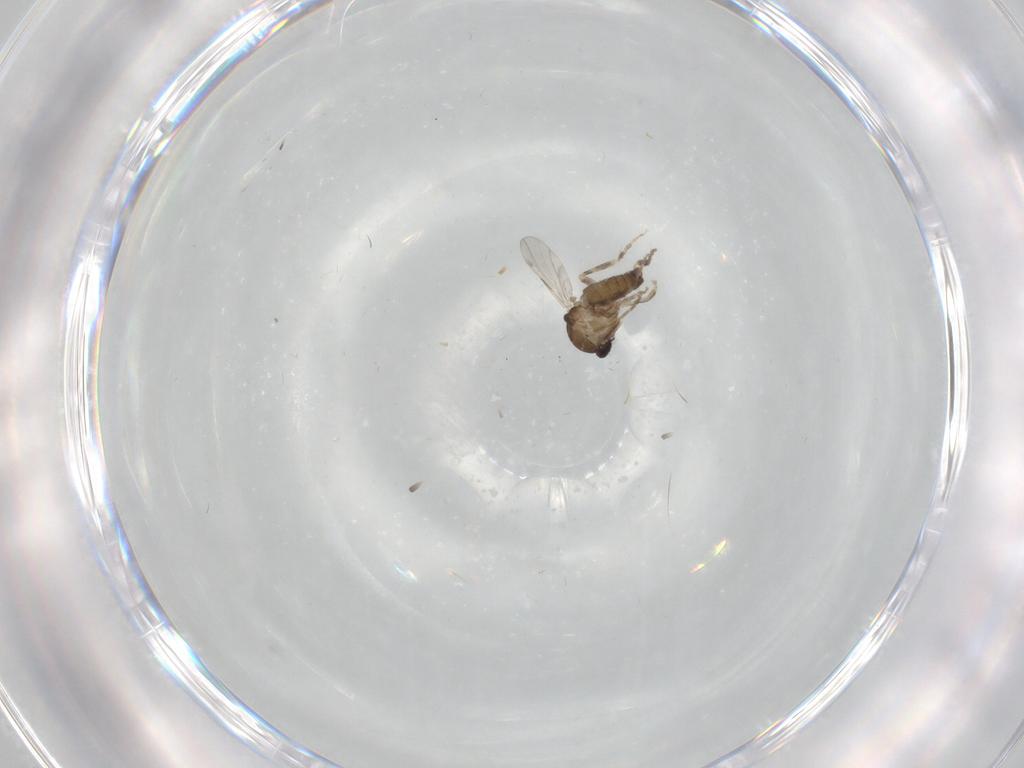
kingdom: Animalia
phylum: Arthropoda
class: Insecta
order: Diptera
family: Ceratopogonidae
